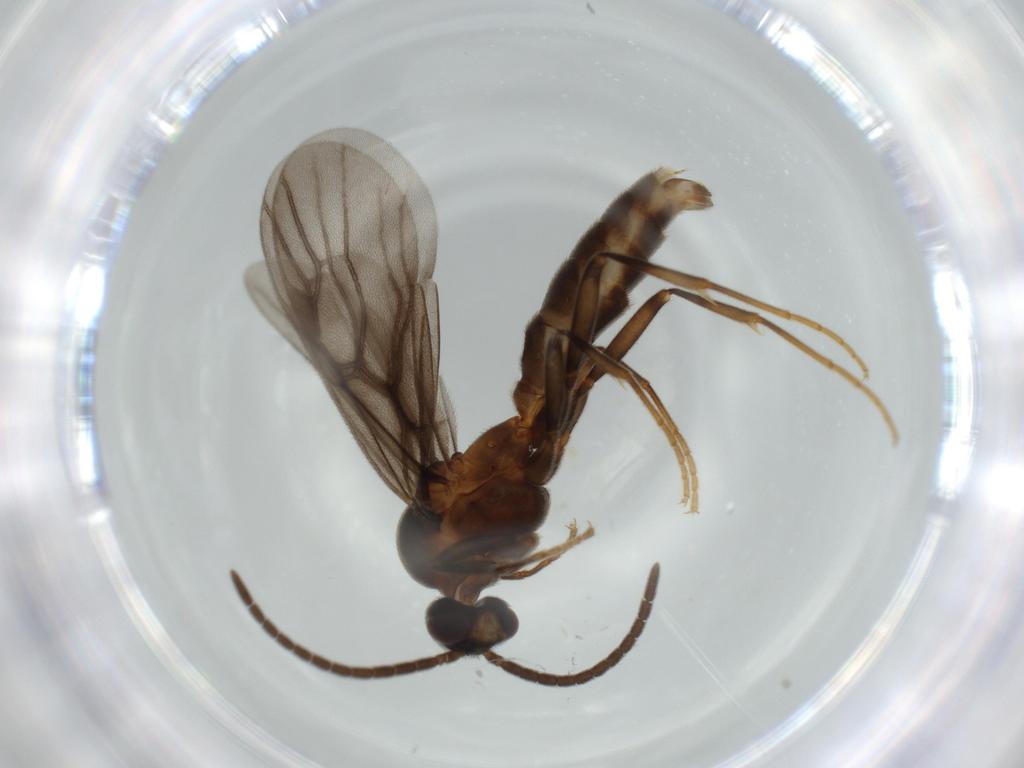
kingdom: Animalia
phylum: Arthropoda
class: Insecta
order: Hymenoptera
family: Formicidae
